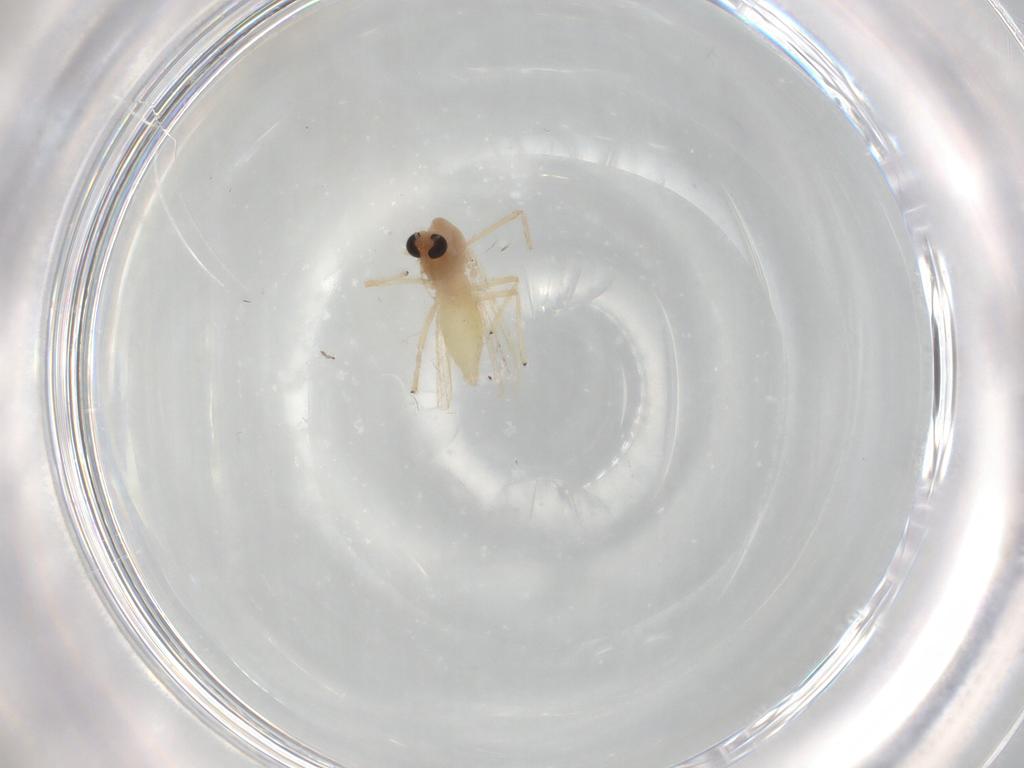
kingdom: Animalia
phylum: Arthropoda
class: Insecta
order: Diptera
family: Chironomidae
